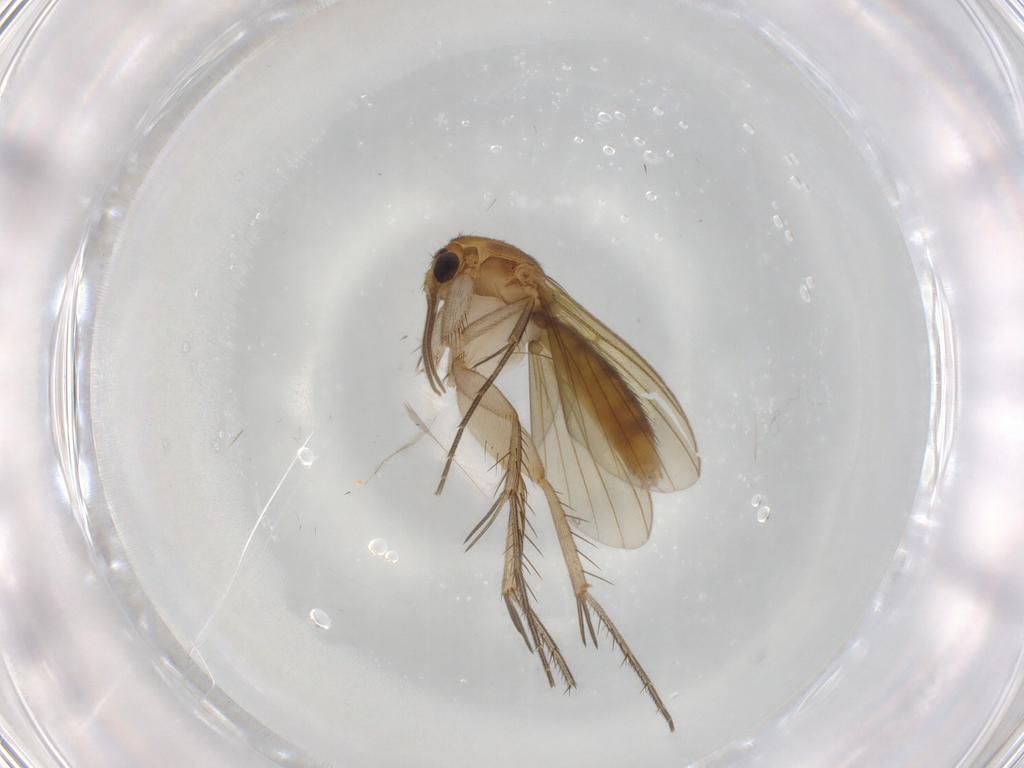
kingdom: Animalia
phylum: Arthropoda
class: Insecta
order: Diptera
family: Phoridae
